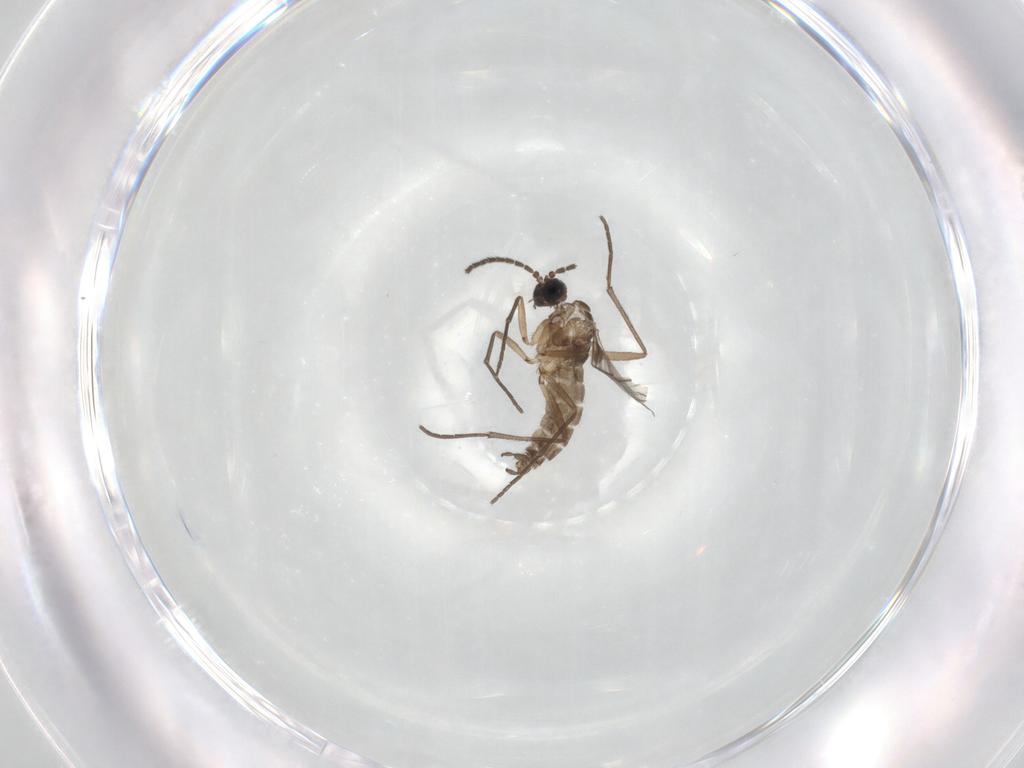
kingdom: Animalia
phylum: Arthropoda
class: Insecta
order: Diptera
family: Sciaridae
